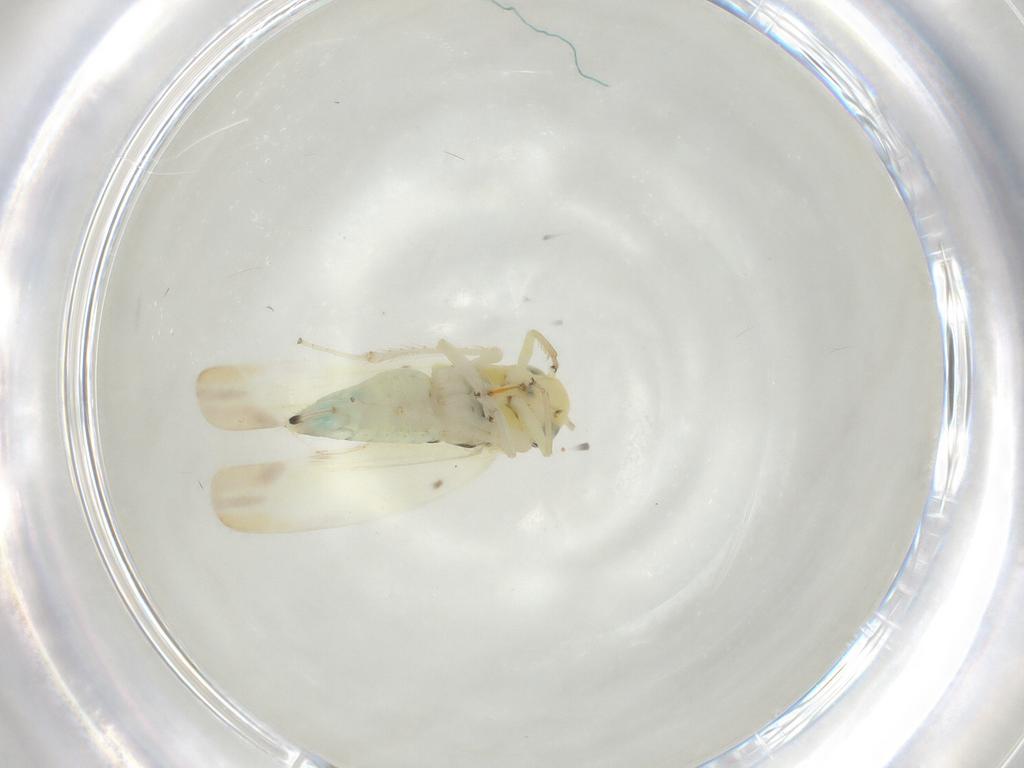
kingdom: Animalia
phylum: Arthropoda
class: Insecta
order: Hemiptera
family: Cicadellidae
